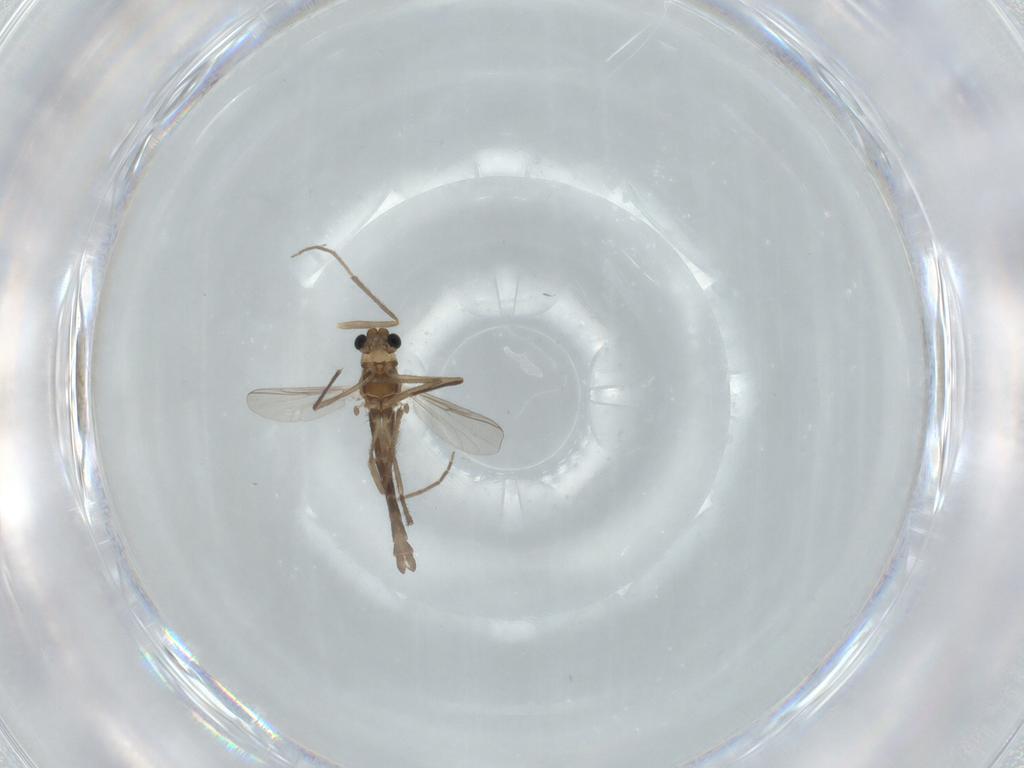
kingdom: Animalia
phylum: Arthropoda
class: Insecta
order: Diptera
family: Chironomidae
